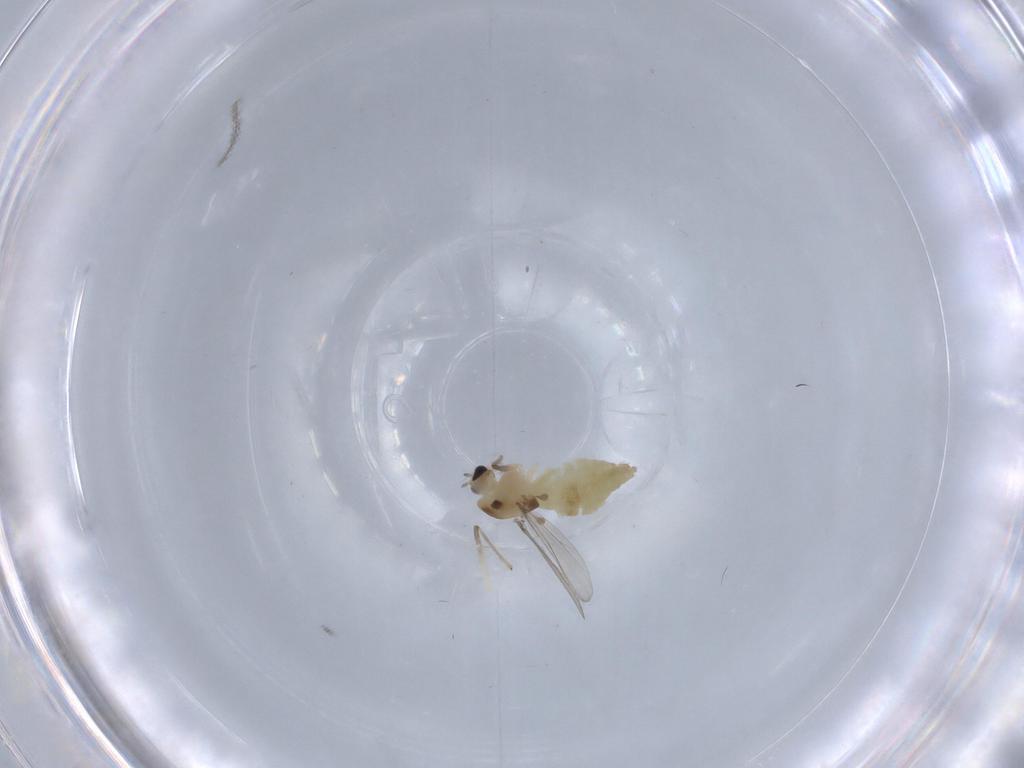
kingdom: Animalia
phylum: Arthropoda
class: Insecta
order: Diptera
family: Chironomidae
